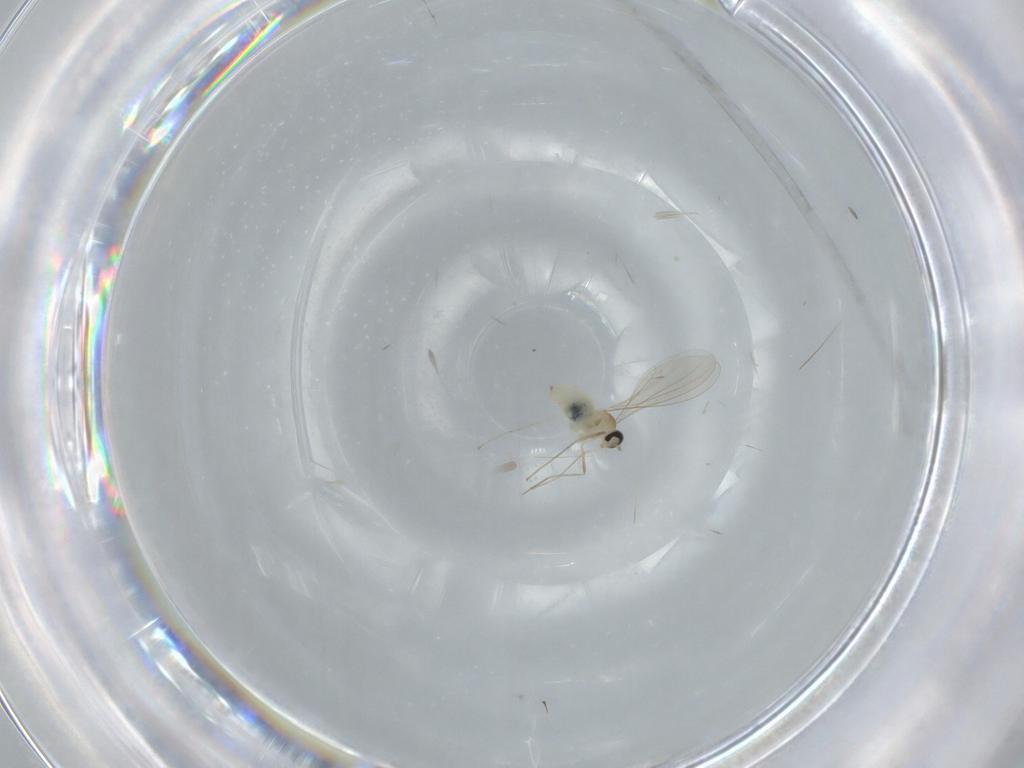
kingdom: Animalia
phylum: Arthropoda
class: Insecta
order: Diptera
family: Cecidomyiidae
